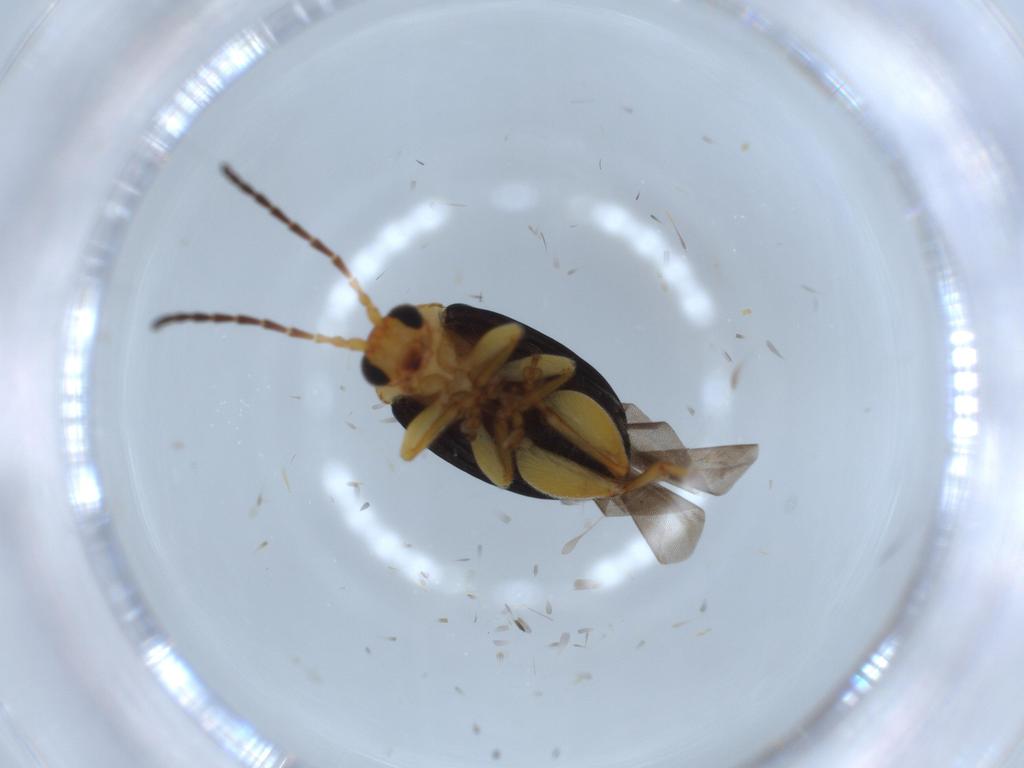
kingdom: Animalia
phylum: Arthropoda
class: Insecta
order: Coleoptera
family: Chrysomelidae
